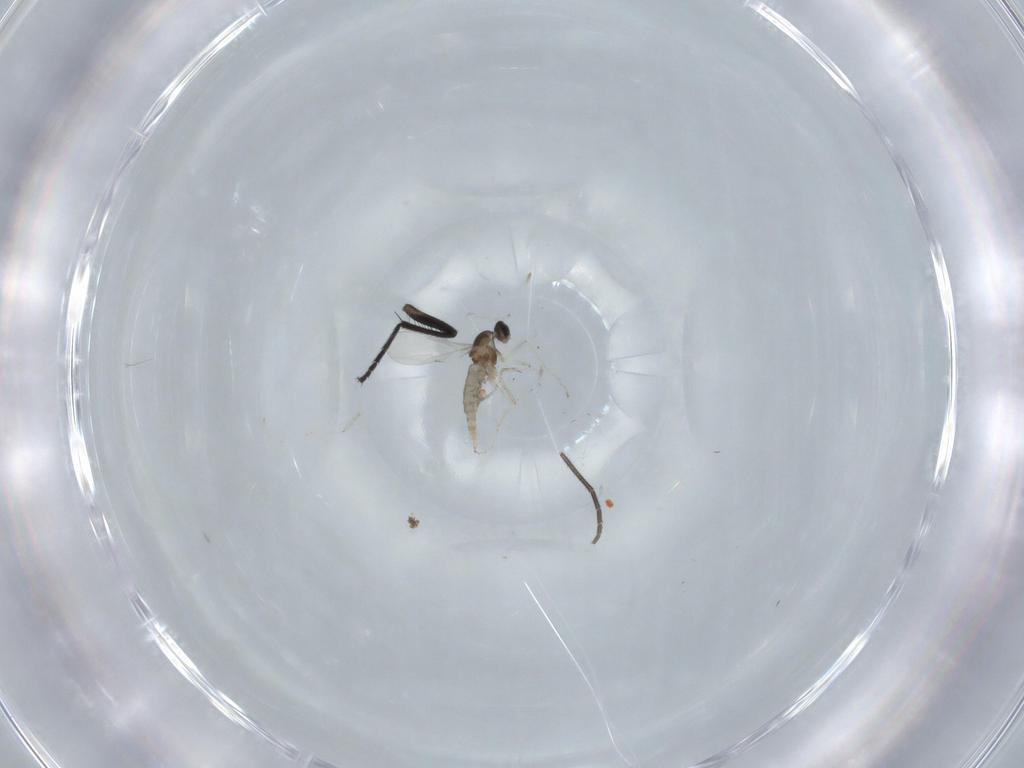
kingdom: Animalia
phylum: Arthropoda
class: Insecta
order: Diptera
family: Cecidomyiidae
